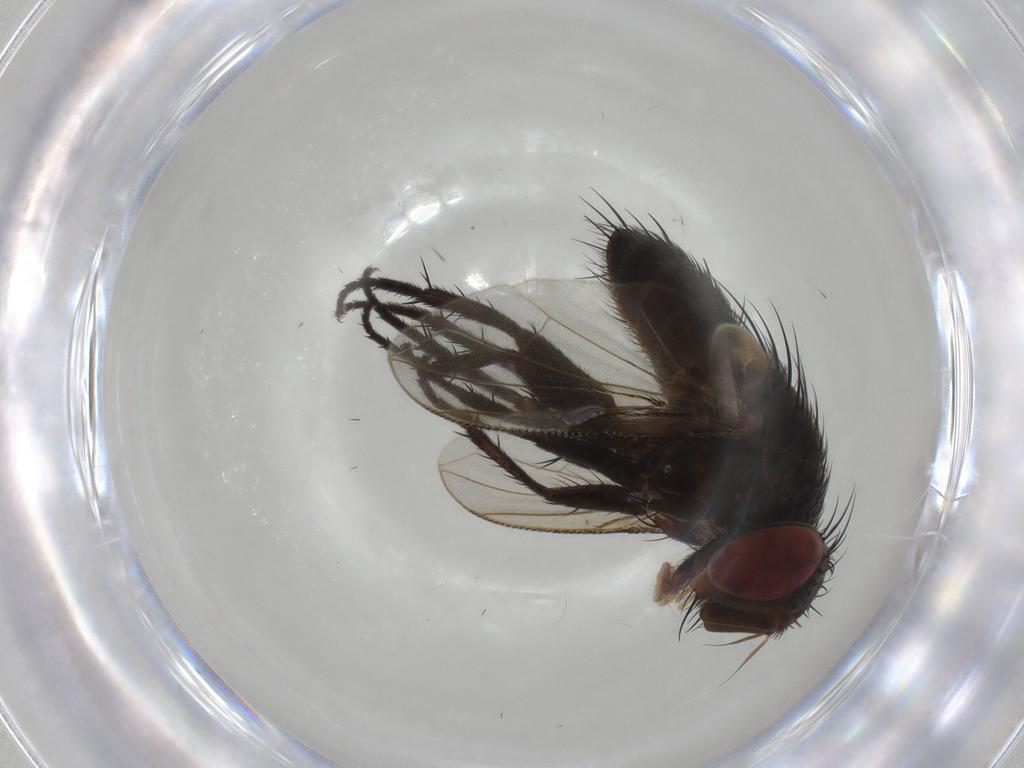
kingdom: Animalia
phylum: Arthropoda
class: Insecta
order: Diptera
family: Tachinidae
